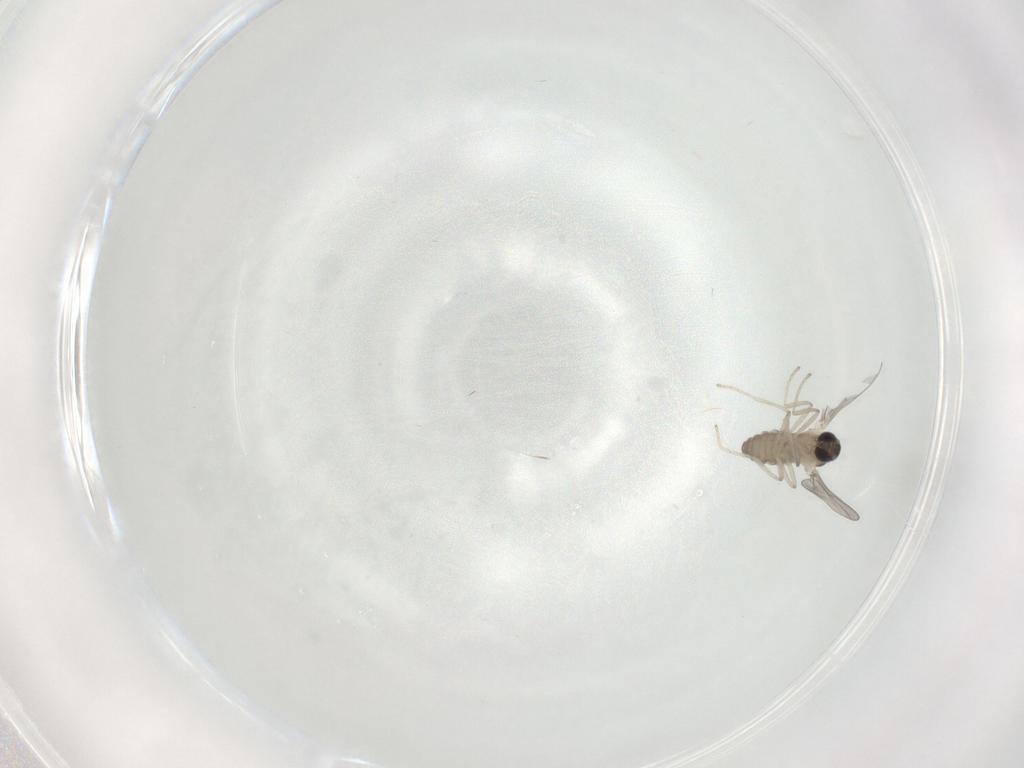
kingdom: Animalia
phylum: Arthropoda
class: Insecta
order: Diptera
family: Cecidomyiidae
